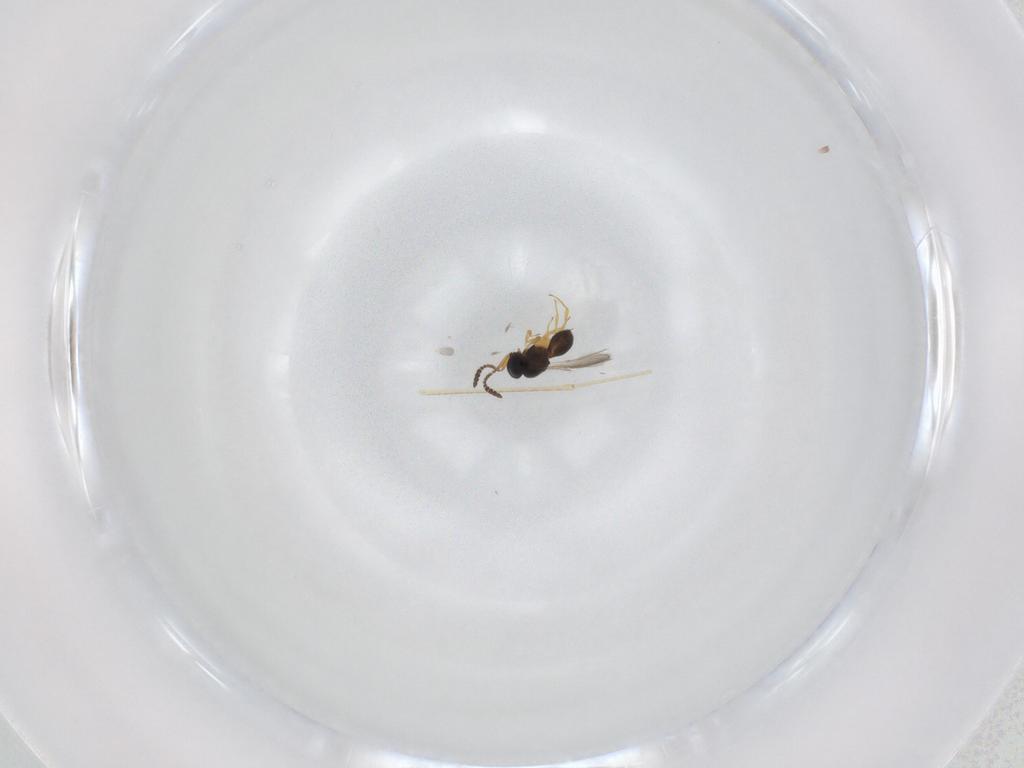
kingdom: Animalia
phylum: Arthropoda
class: Insecta
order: Hymenoptera
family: Scelionidae
